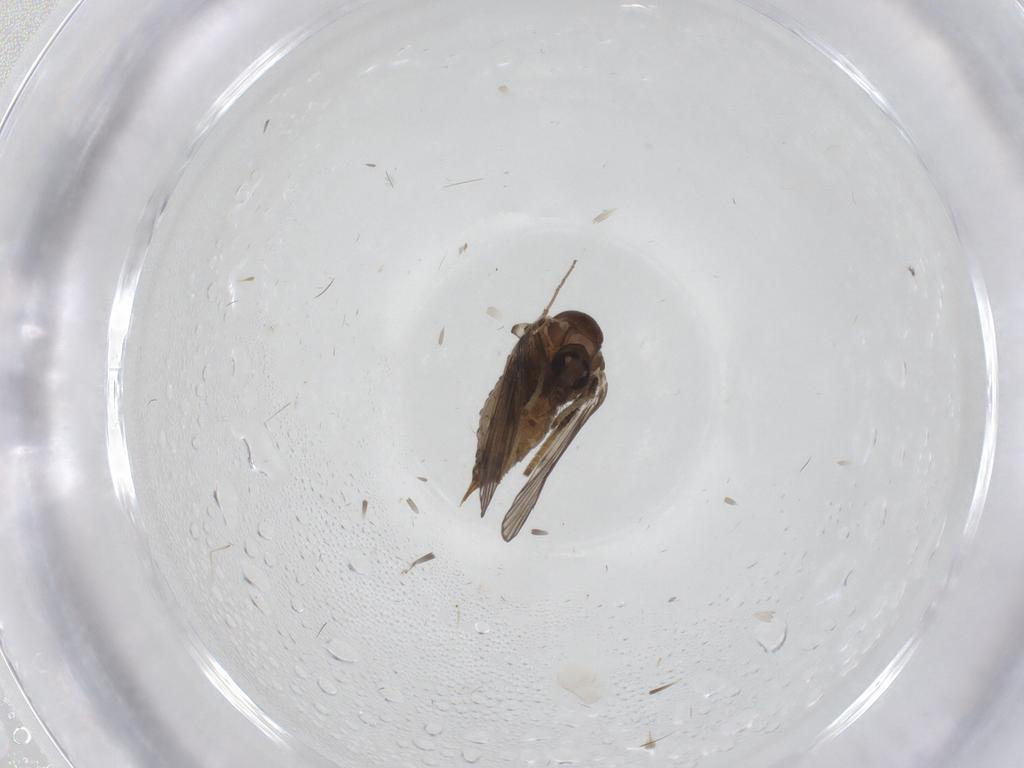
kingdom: Animalia
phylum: Arthropoda
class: Insecta
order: Diptera
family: Psychodidae
